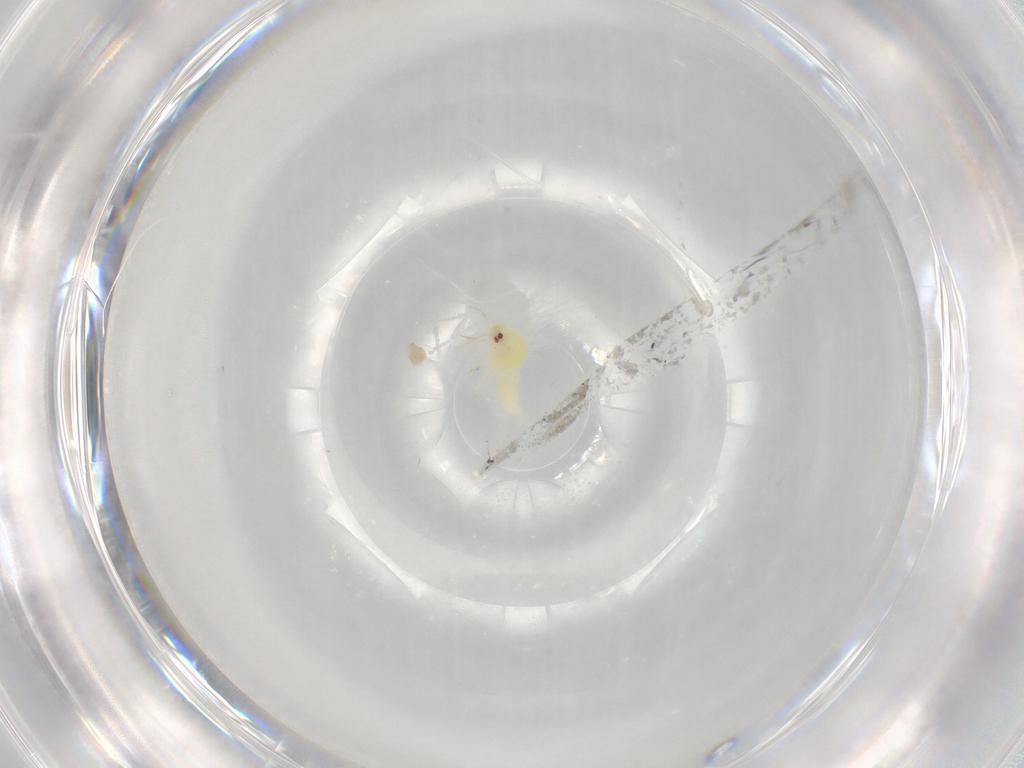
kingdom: Animalia
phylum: Arthropoda
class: Insecta
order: Hemiptera
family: Aleyrodidae
